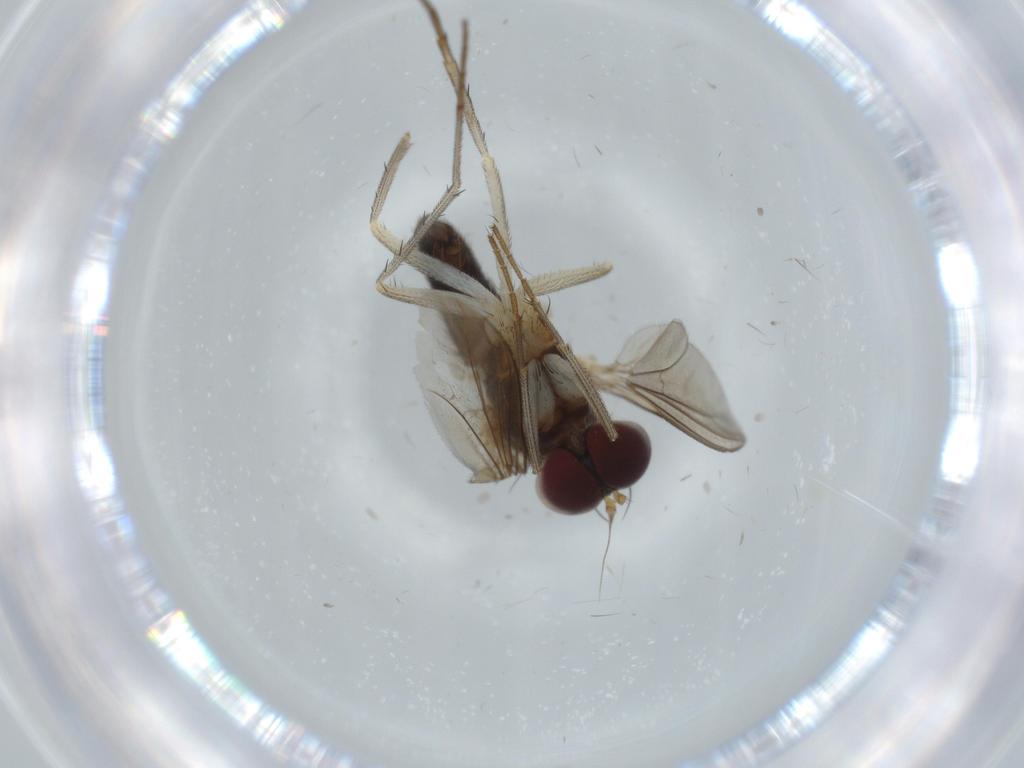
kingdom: Animalia
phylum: Arthropoda
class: Insecta
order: Diptera
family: Dolichopodidae
